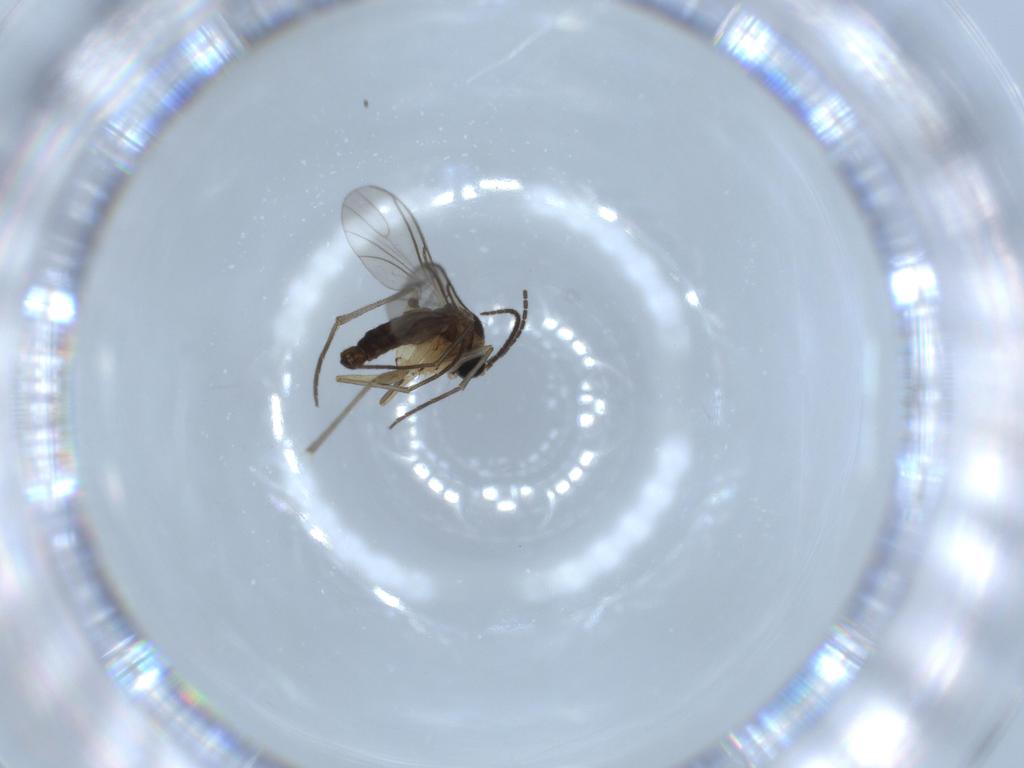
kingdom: Animalia
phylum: Arthropoda
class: Insecta
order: Diptera
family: Sciaridae
